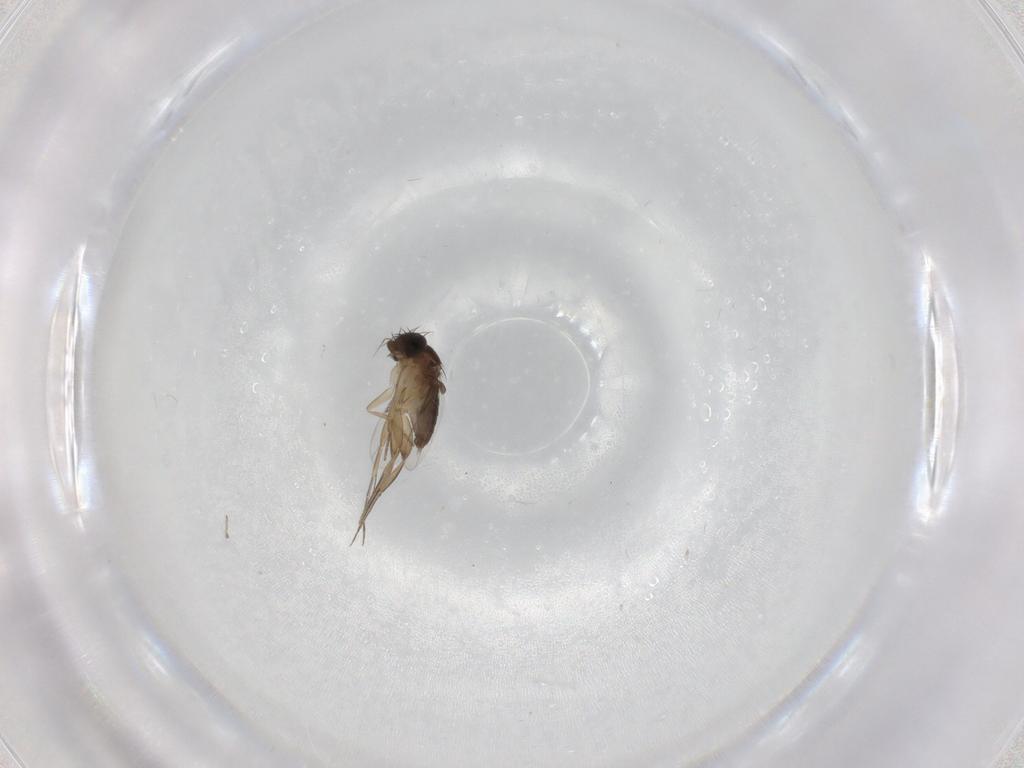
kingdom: Animalia
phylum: Arthropoda
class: Insecta
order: Diptera
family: Phoridae
